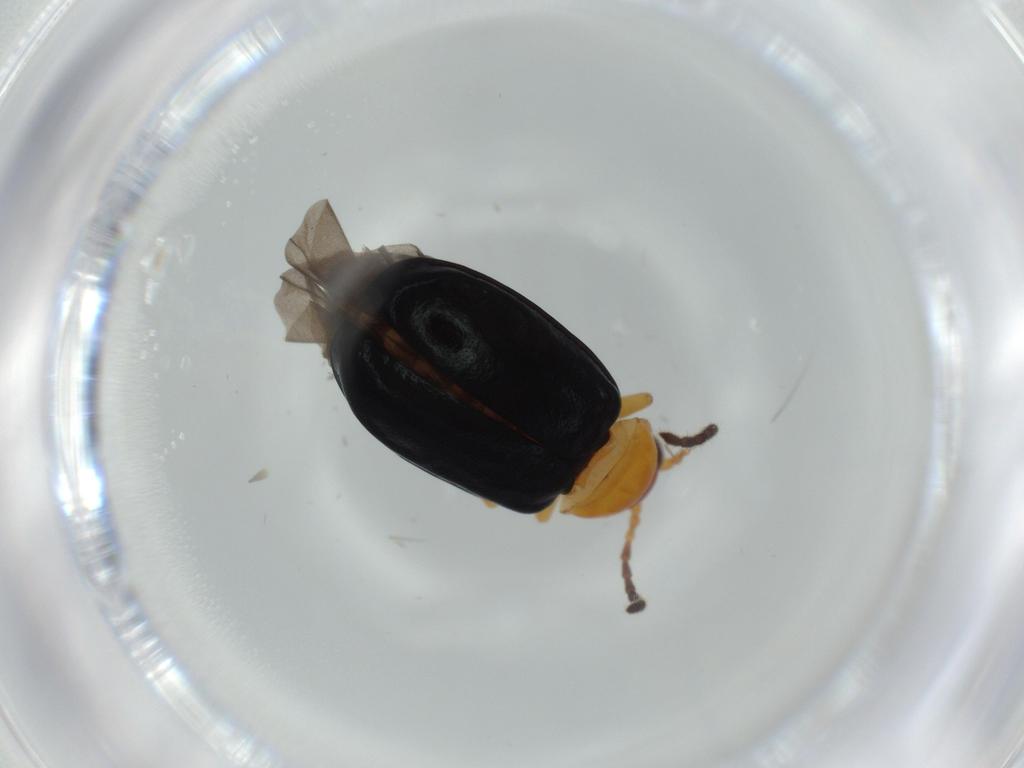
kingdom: Animalia
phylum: Arthropoda
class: Insecta
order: Coleoptera
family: Chrysomelidae
